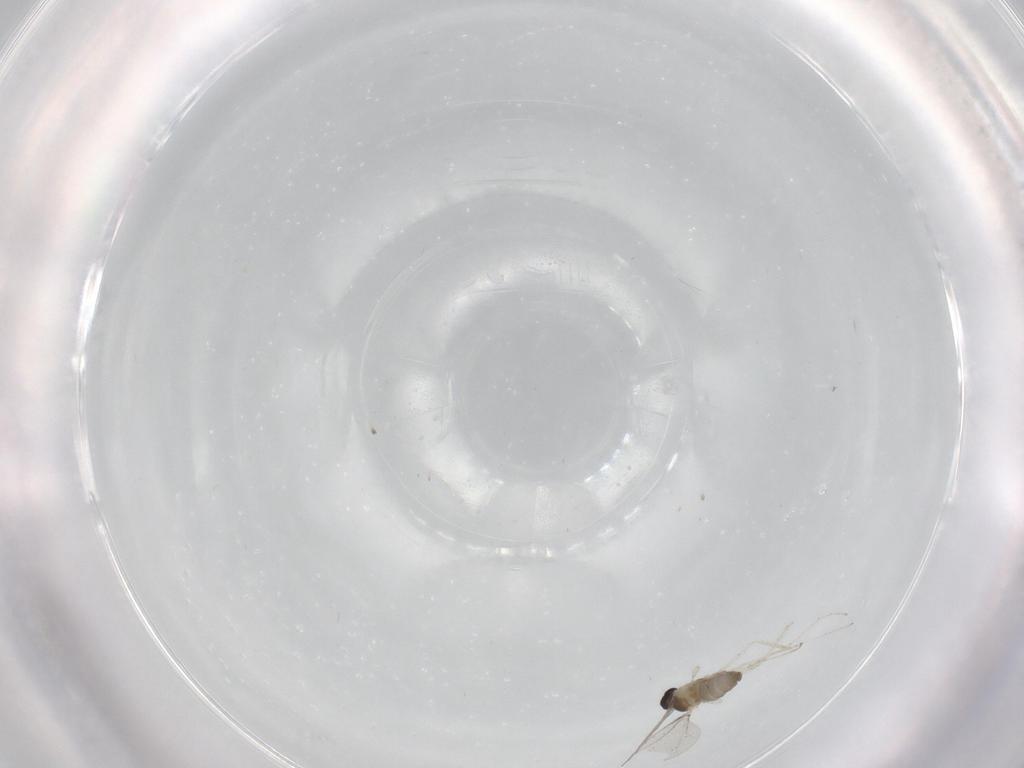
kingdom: Animalia
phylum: Arthropoda
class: Insecta
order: Diptera
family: Cecidomyiidae
